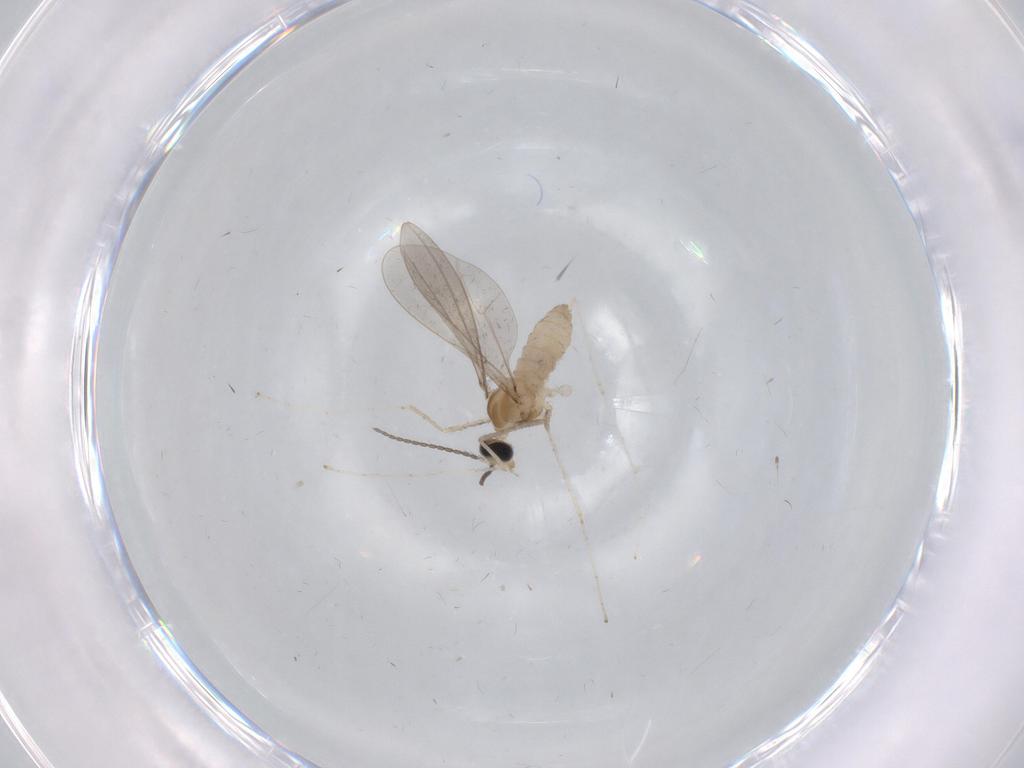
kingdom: Animalia
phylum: Arthropoda
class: Insecta
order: Diptera
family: Cecidomyiidae
